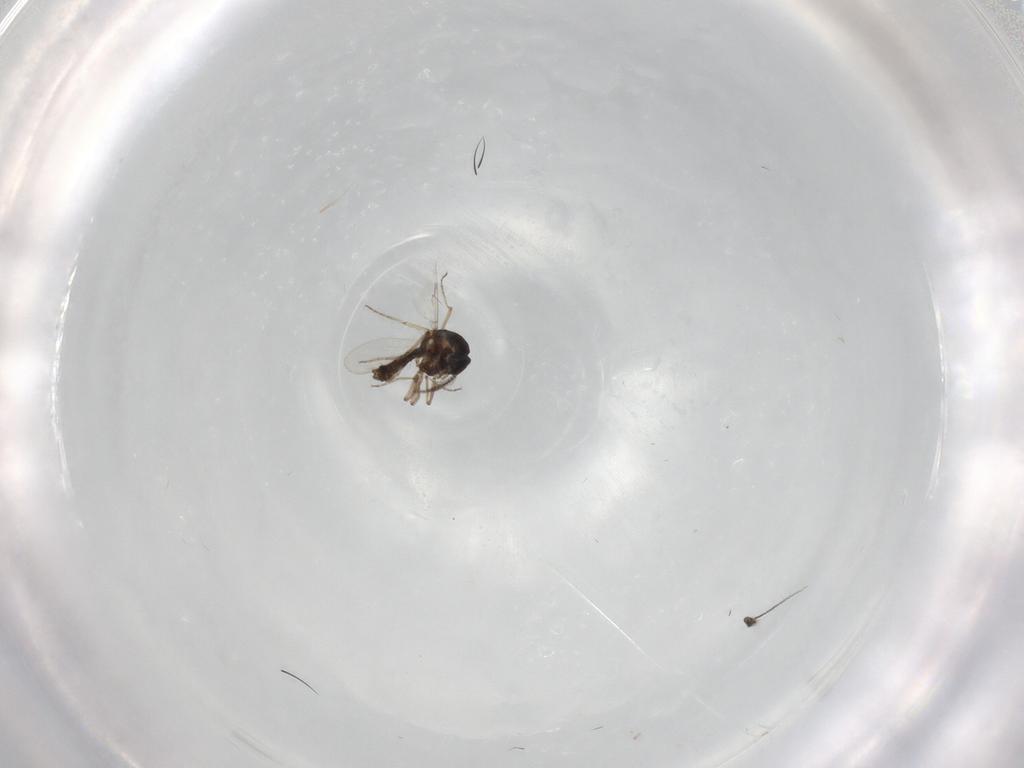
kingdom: Animalia
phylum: Arthropoda
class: Insecta
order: Diptera
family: Ceratopogonidae
